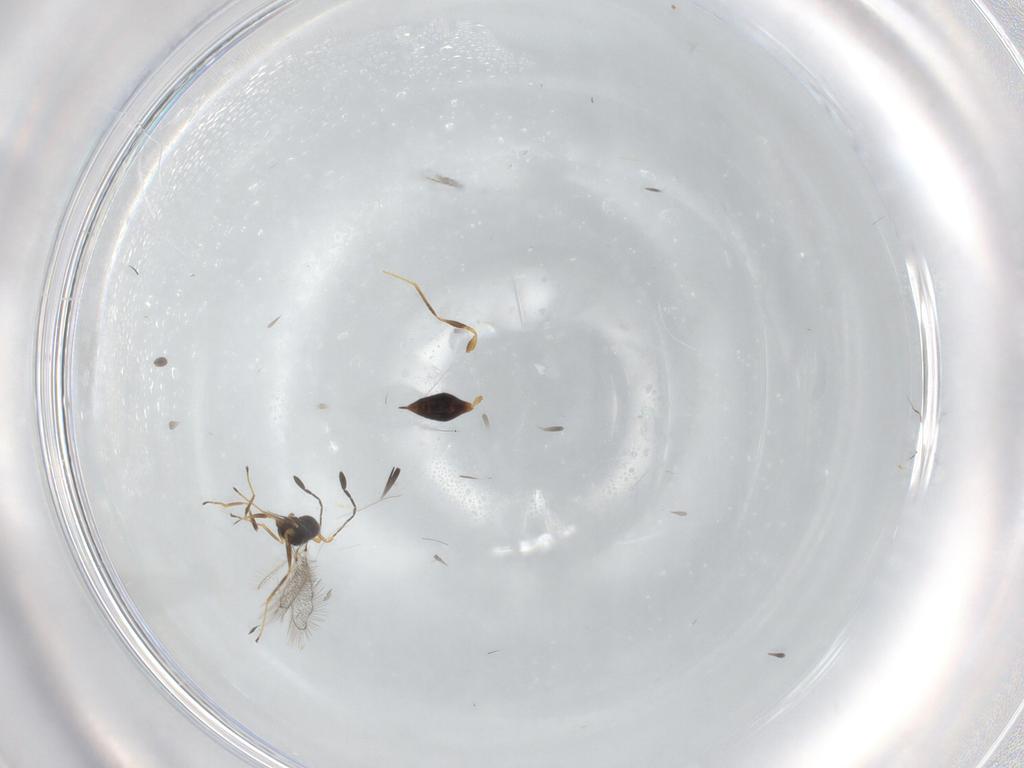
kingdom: Animalia
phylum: Arthropoda
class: Insecta
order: Hymenoptera
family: Mymaridae
